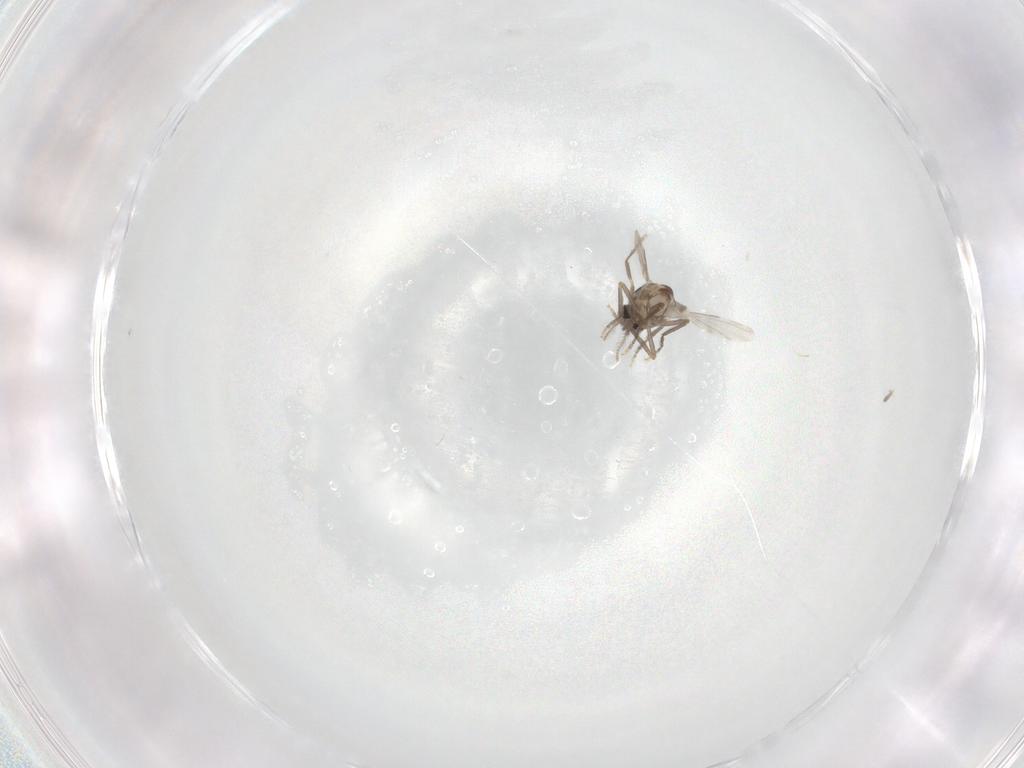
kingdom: Animalia
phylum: Arthropoda
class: Insecta
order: Diptera
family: Ceratopogonidae
